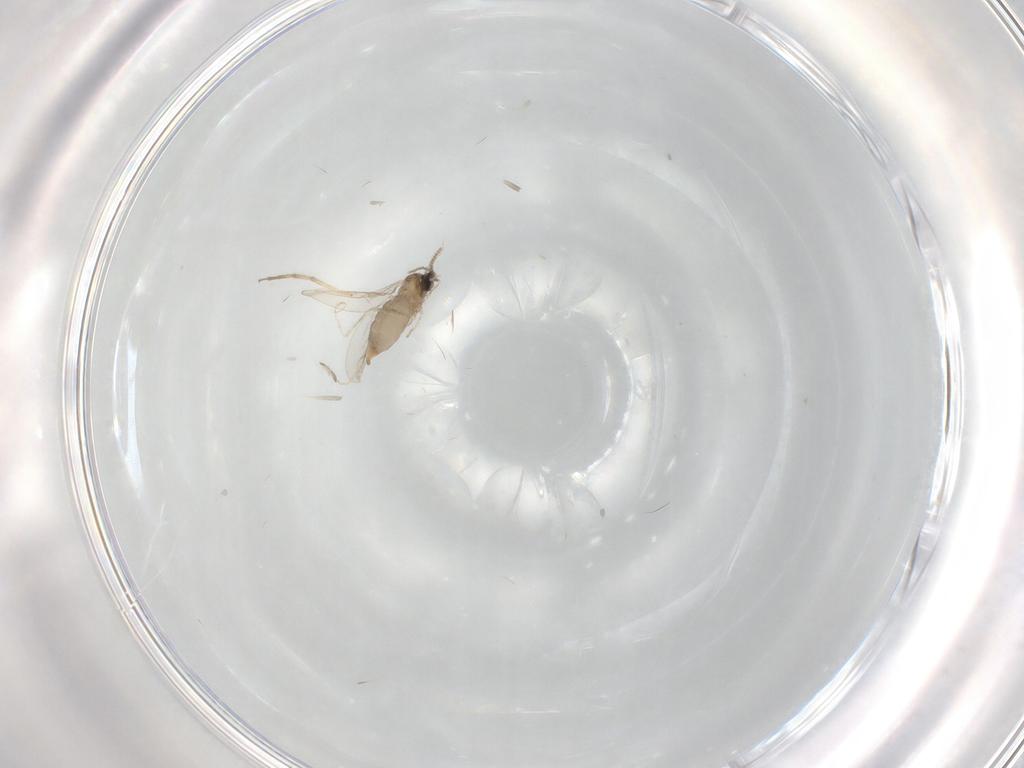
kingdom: Animalia
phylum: Arthropoda
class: Insecta
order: Diptera
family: Cecidomyiidae
